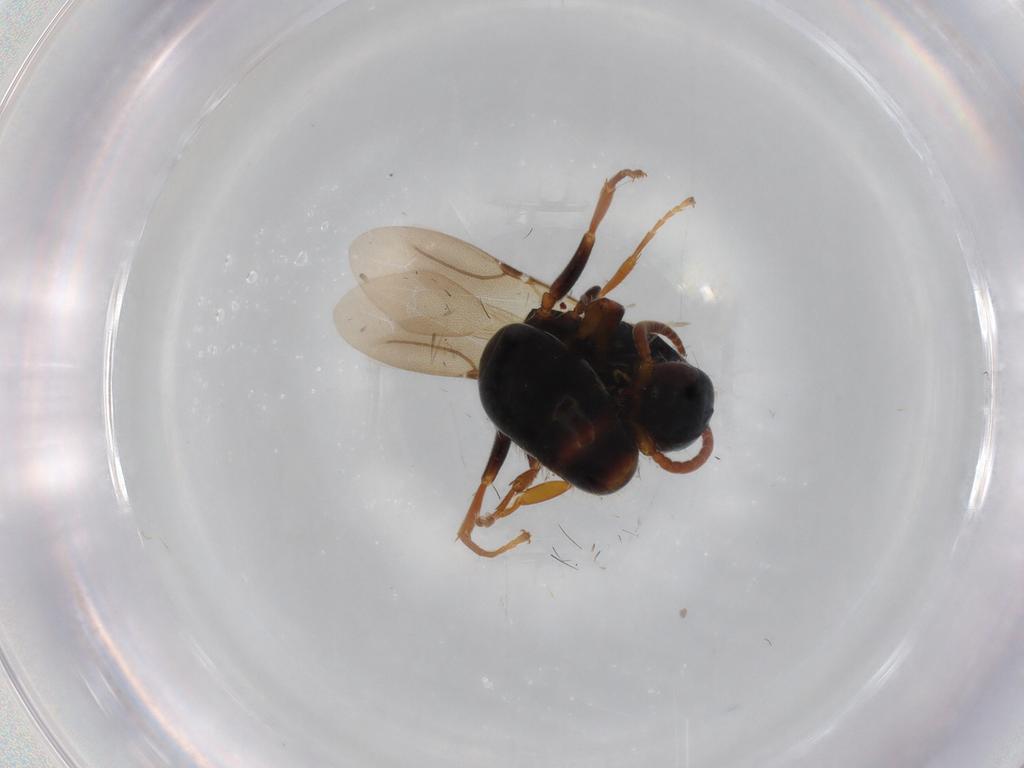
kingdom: Animalia
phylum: Arthropoda
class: Insecta
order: Hymenoptera
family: Bethylidae
